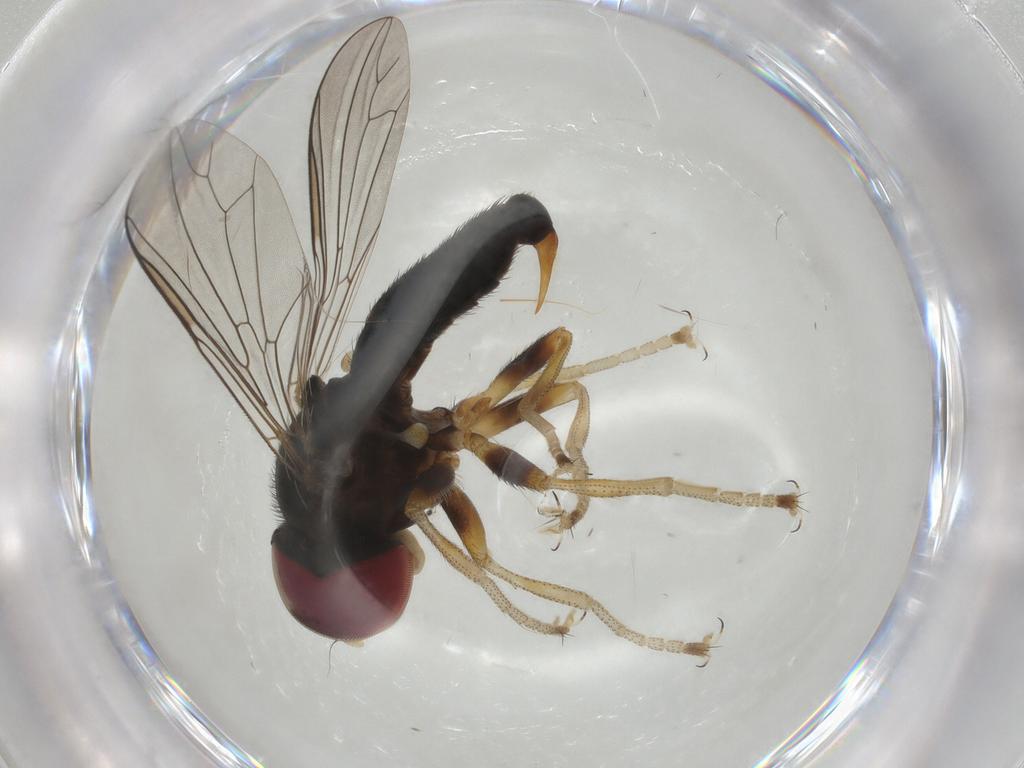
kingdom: Animalia
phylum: Arthropoda
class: Insecta
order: Diptera
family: Pipunculidae
